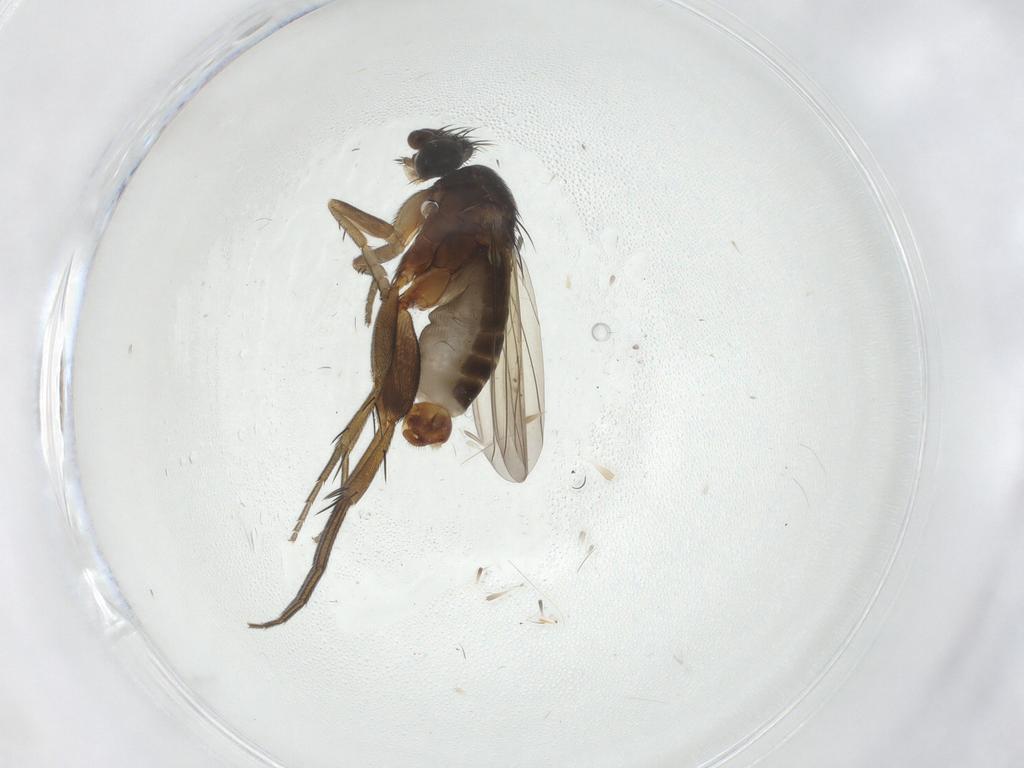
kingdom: Animalia
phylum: Arthropoda
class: Insecta
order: Diptera
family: Phoridae
